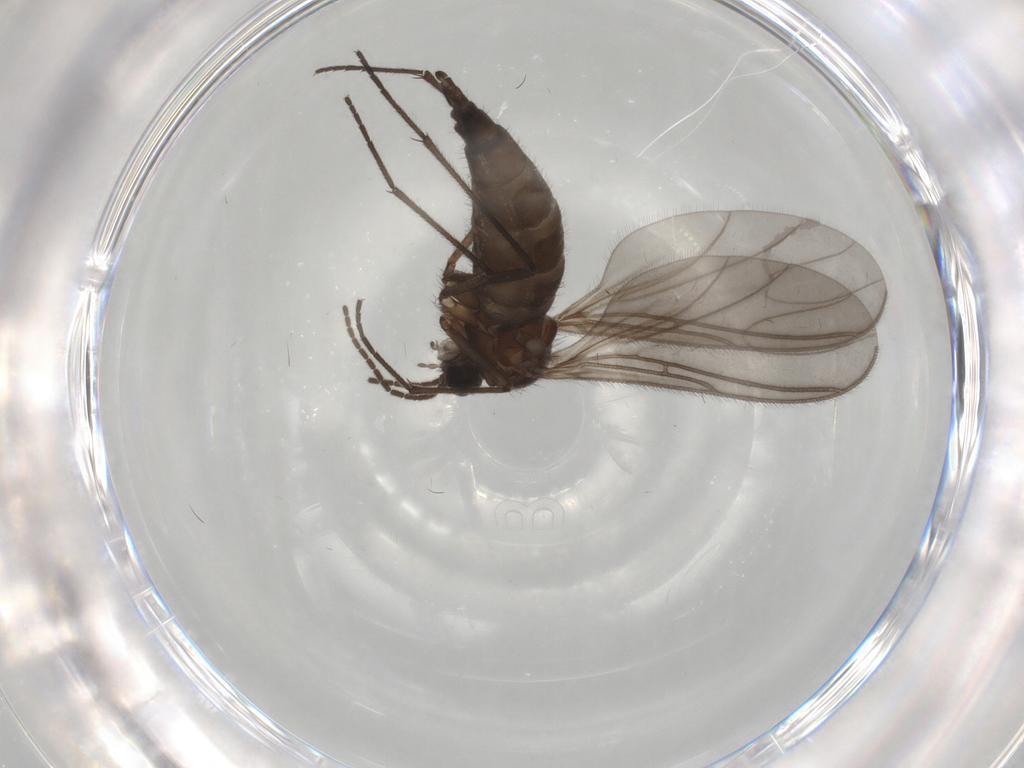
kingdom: Animalia
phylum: Arthropoda
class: Insecta
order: Diptera
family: Sciaridae
